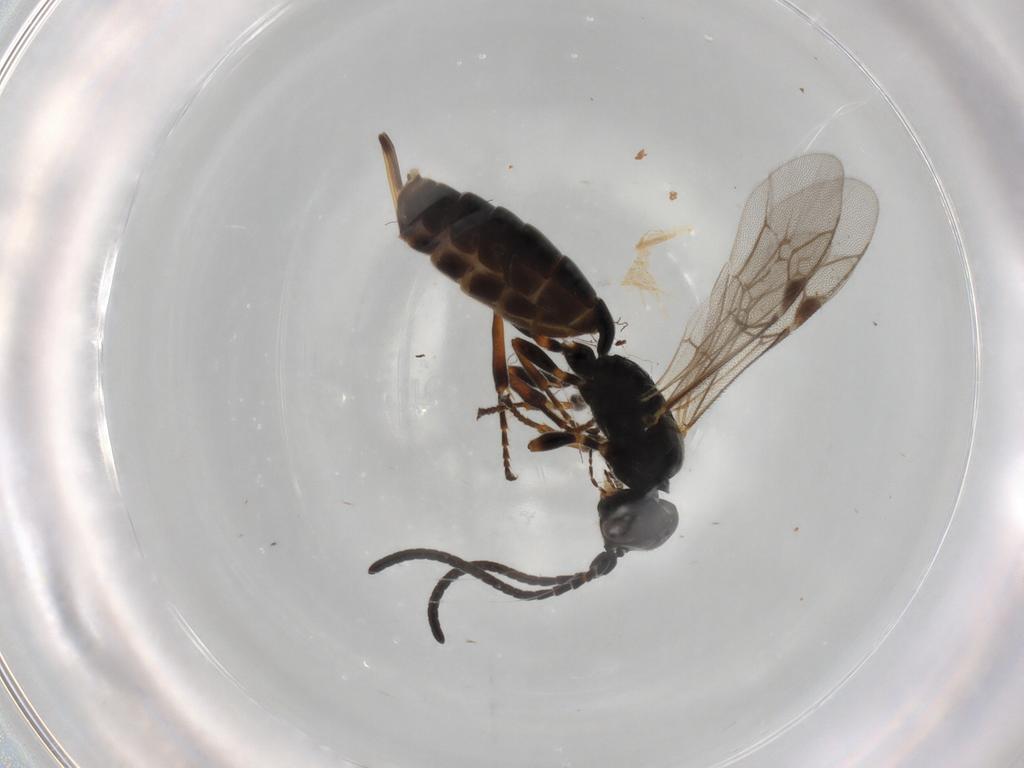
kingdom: Animalia
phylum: Arthropoda
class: Insecta
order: Hymenoptera
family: Ichneumonidae
